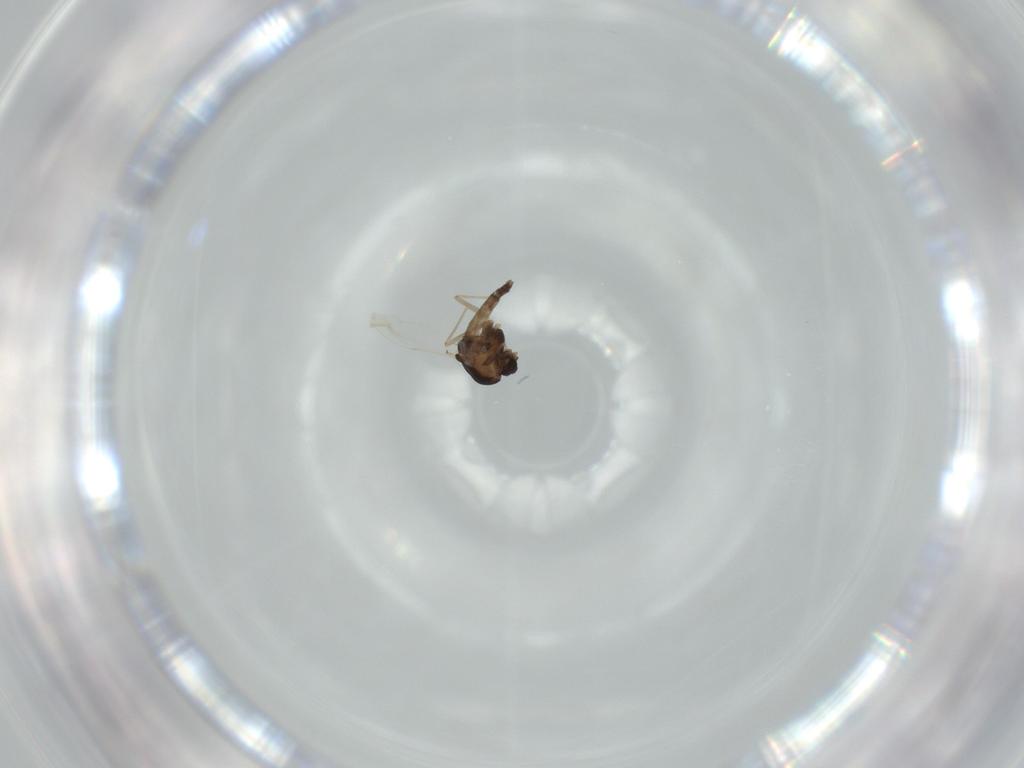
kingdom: Animalia
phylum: Arthropoda
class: Insecta
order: Diptera
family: Chironomidae
